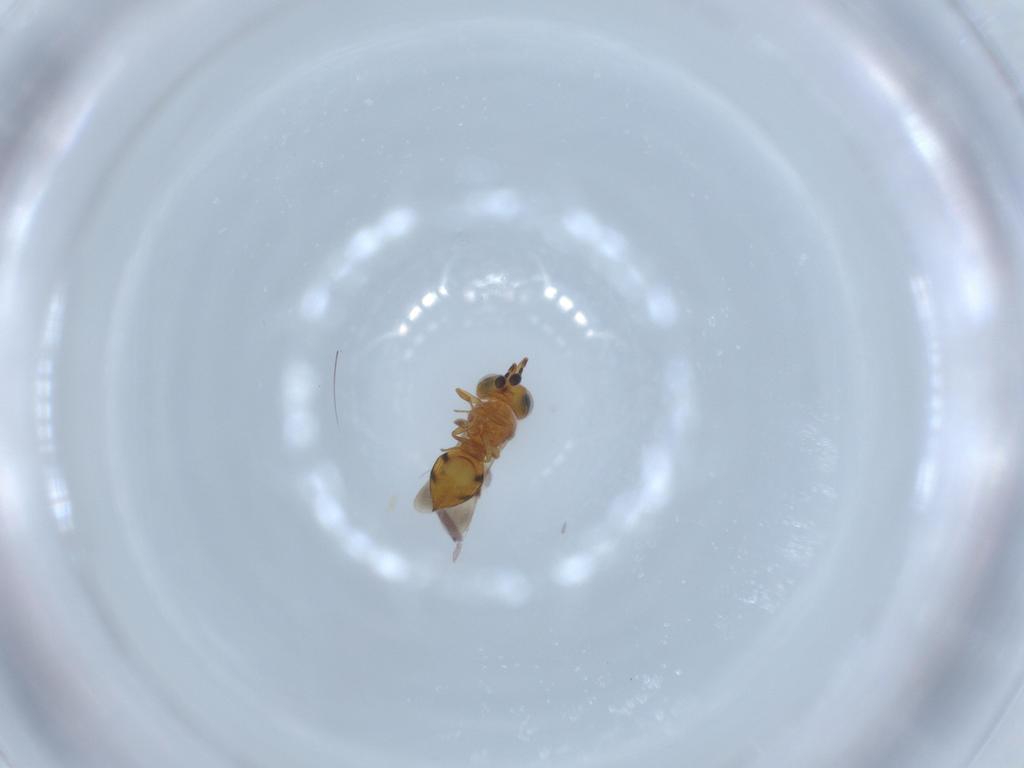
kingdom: Animalia
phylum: Arthropoda
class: Insecta
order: Hymenoptera
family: Scelionidae
